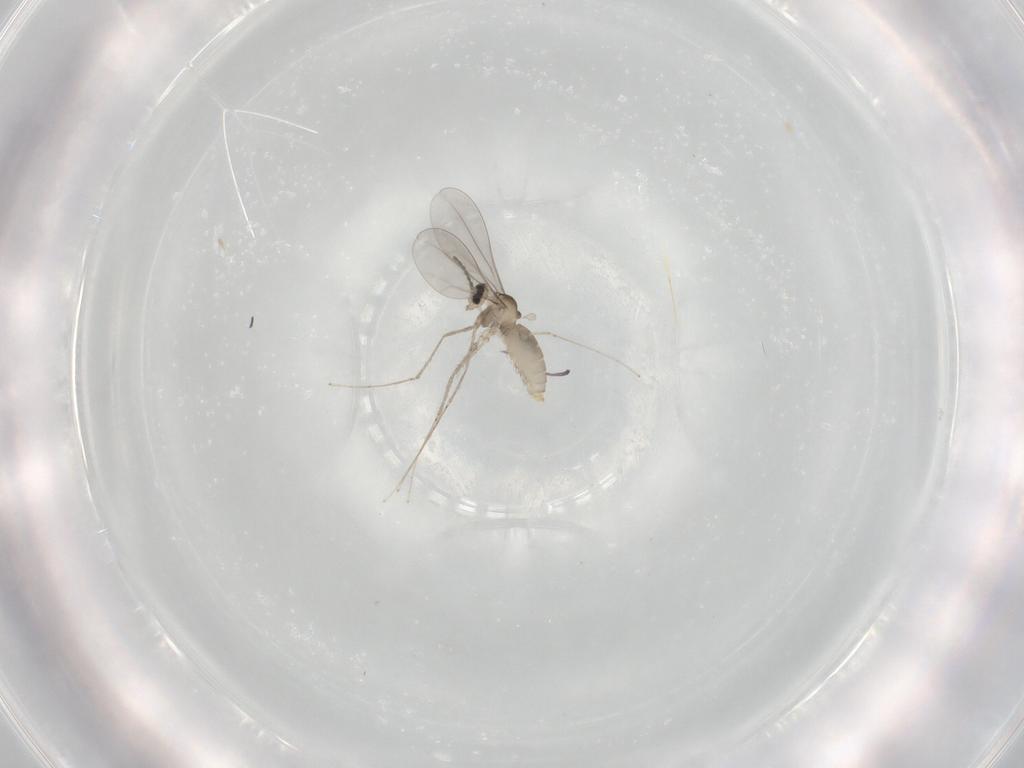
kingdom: Animalia
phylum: Arthropoda
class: Insecta
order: Diptera
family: Cecidomyiidae
